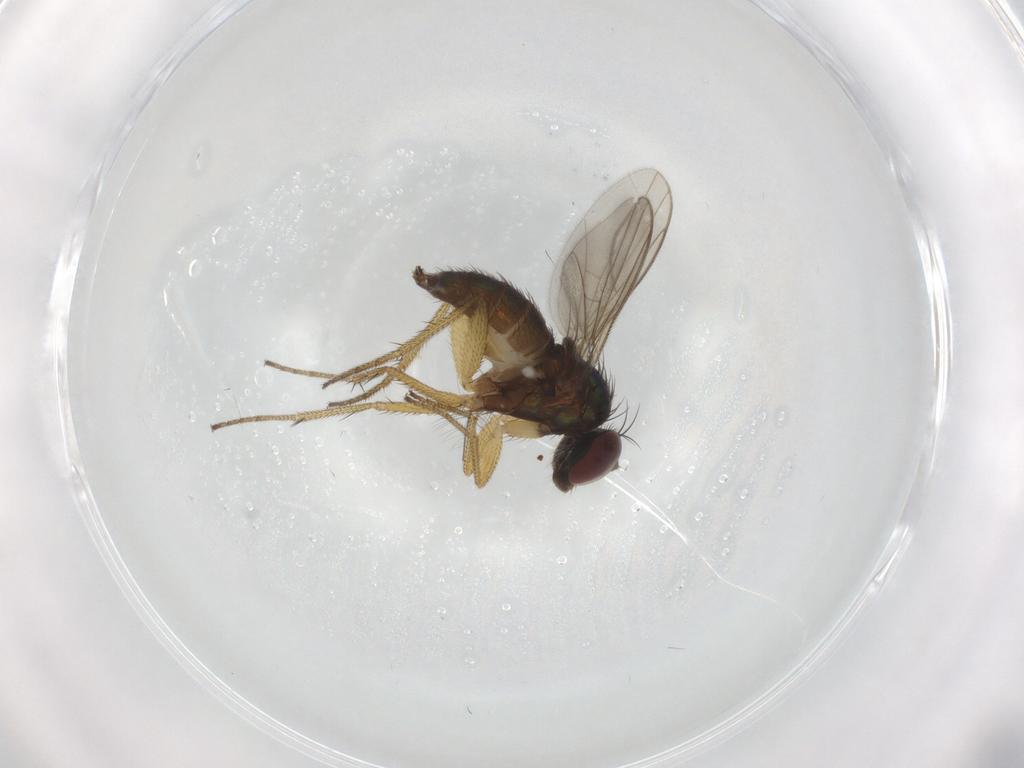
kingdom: Animalia
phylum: Arthropoda
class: Insecta
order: Diptera
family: Dolichopodidae
